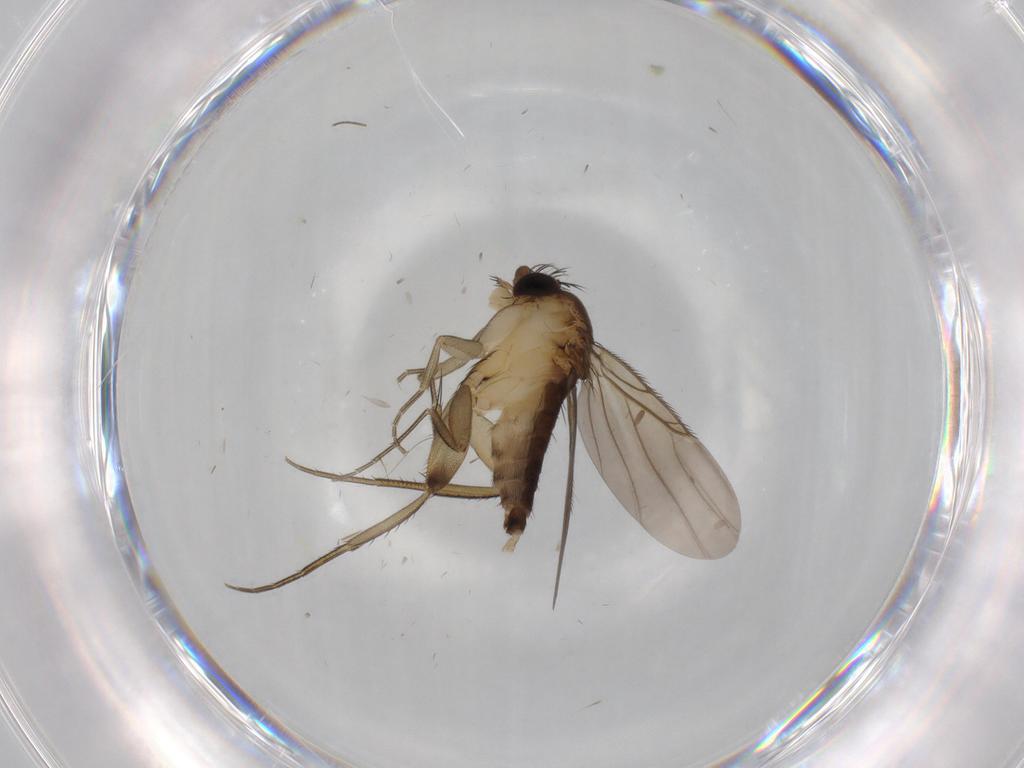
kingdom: Animalia
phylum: Arthropoda
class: Insecta
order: Diptera
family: Phoridae
